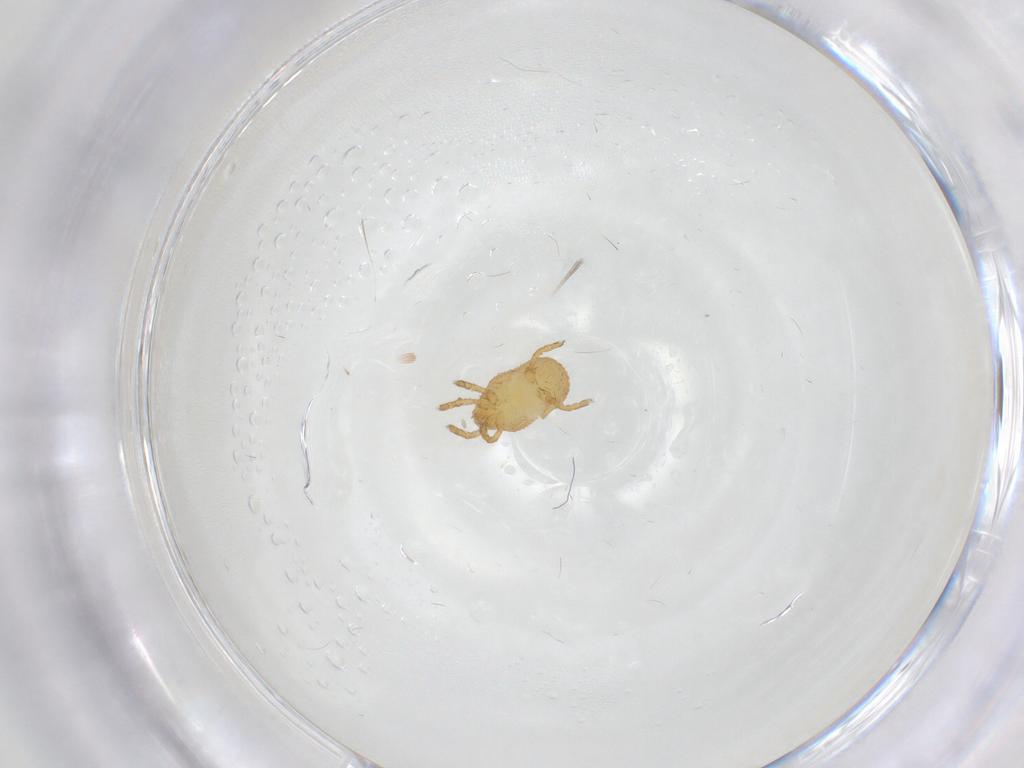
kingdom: Animalia
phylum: Arthropoda
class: Arachnida
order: Trombidiformes
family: Calyptostomatidae
